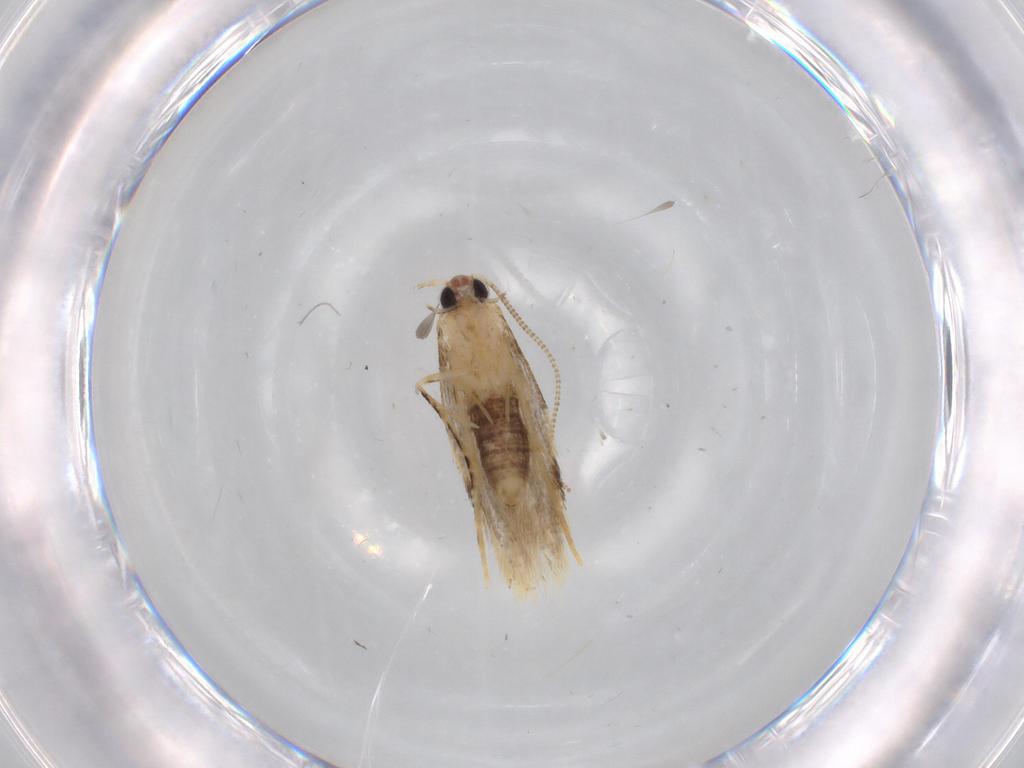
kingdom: Animalia
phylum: Arthropoda
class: Insecta
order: Lepidoptera
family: Tineidae
